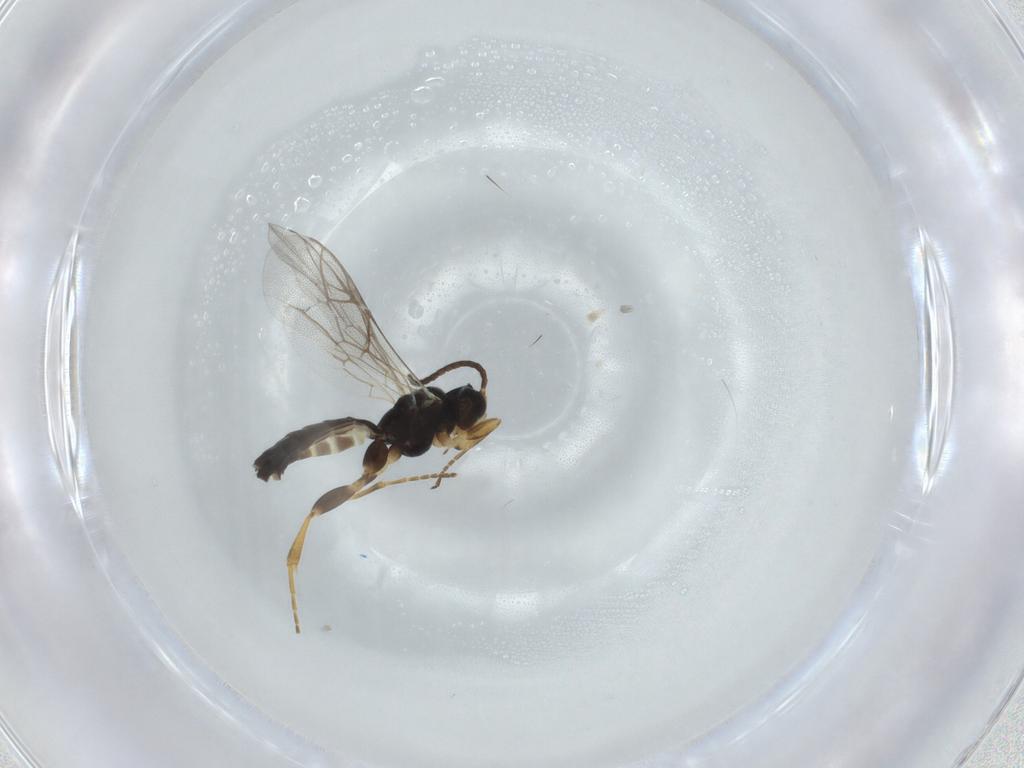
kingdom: Animalia
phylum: Arthropoda
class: Insecta
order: Hymenoptera
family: Ichneumonidae
